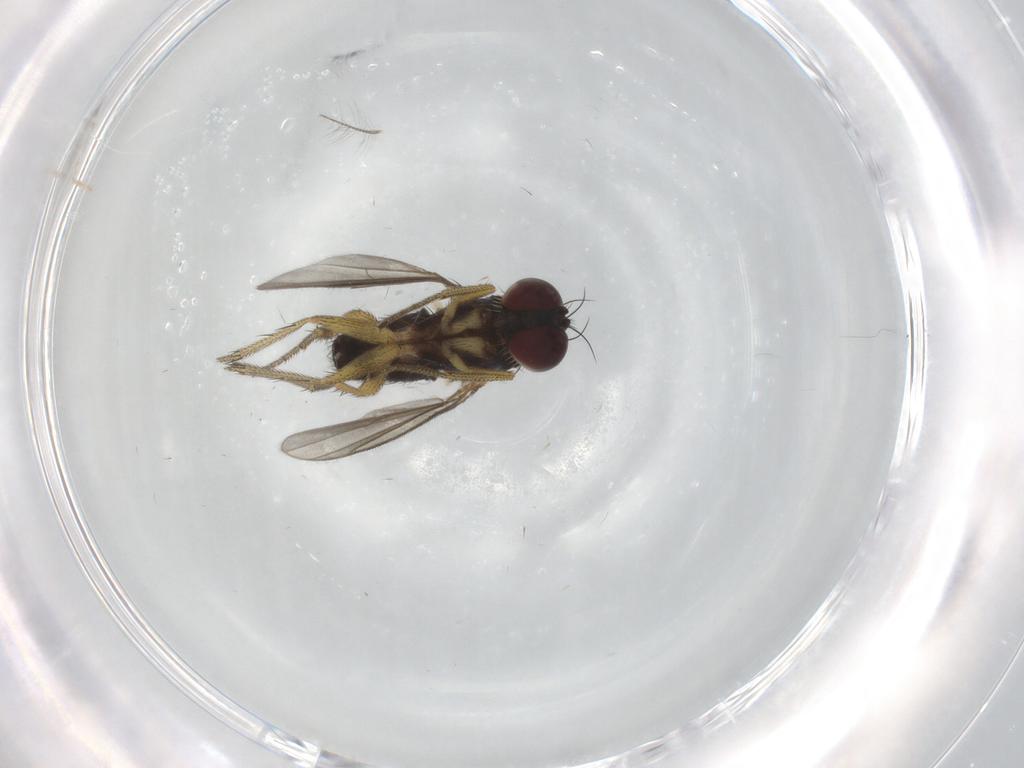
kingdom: Animalia
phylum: Arthropoda
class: Insecta
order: Diptera
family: Chironomidae
